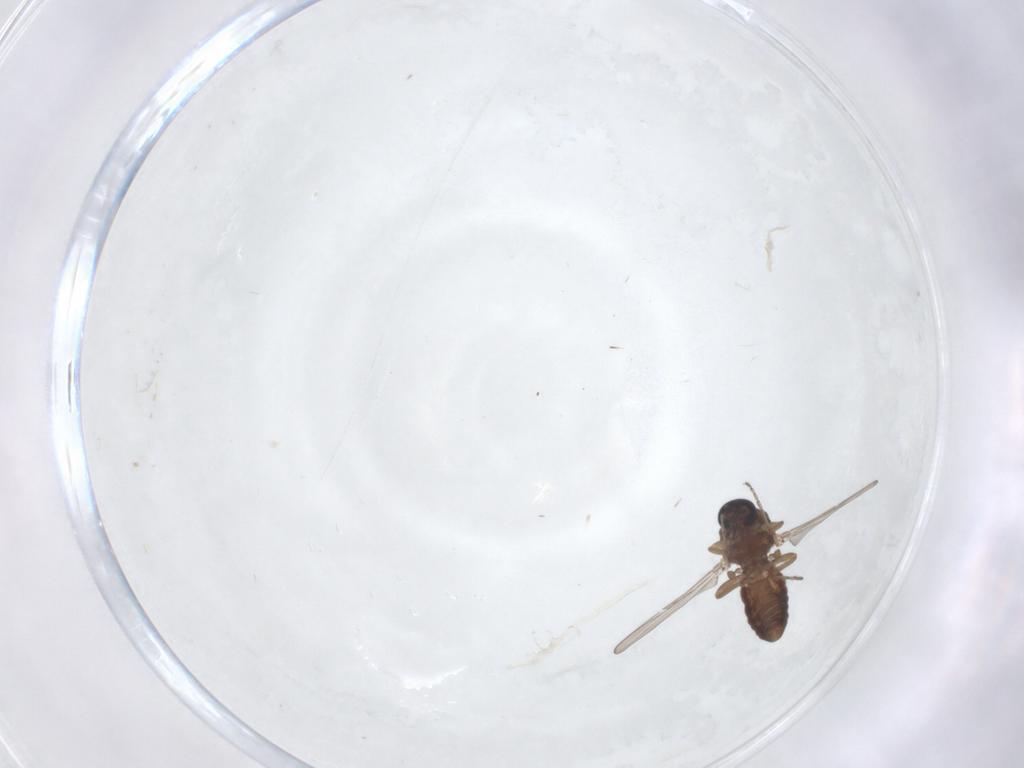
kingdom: Animalia
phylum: Arthropoda
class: Insecta
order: Diptera
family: Ceratopogonidae
